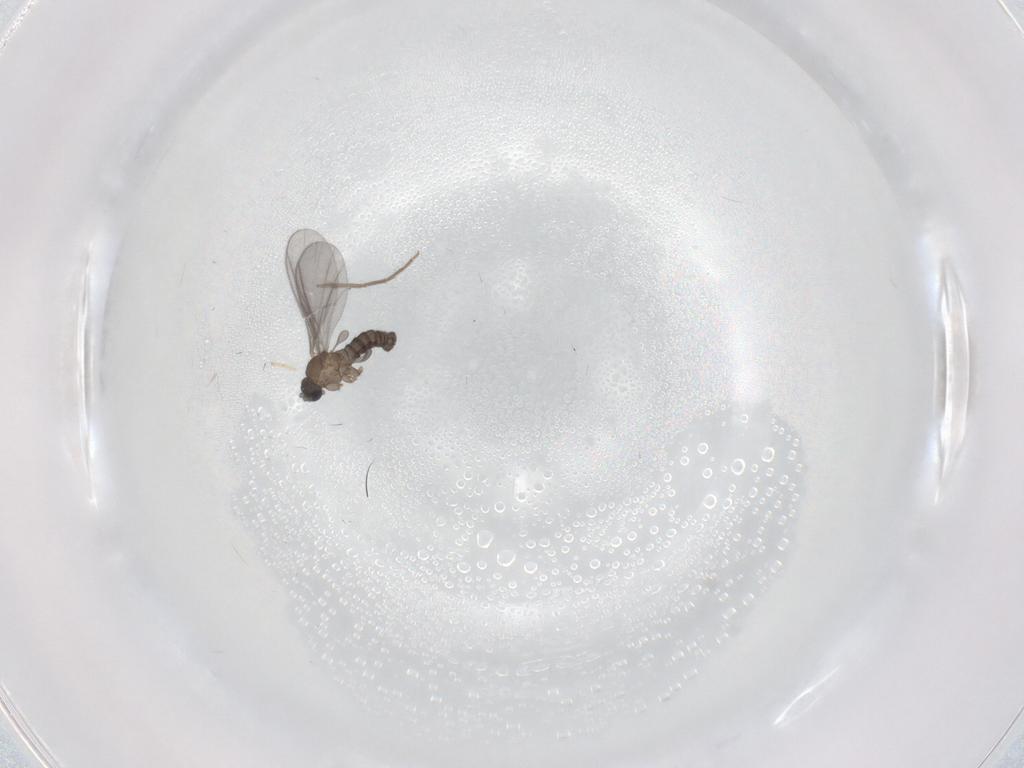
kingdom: Animalia
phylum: Arthropoda
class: Insecta
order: Diptera
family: Sciaridae
